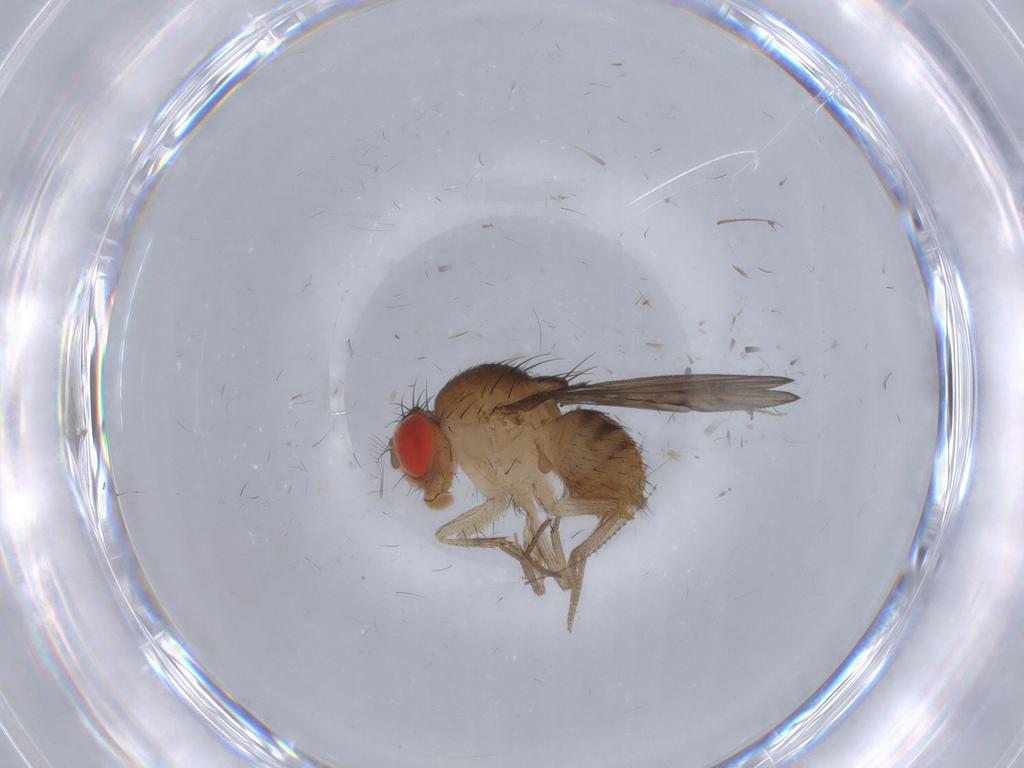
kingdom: Animalia
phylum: Arthropoda
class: Insecta
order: Diptera
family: Drosophilidae
